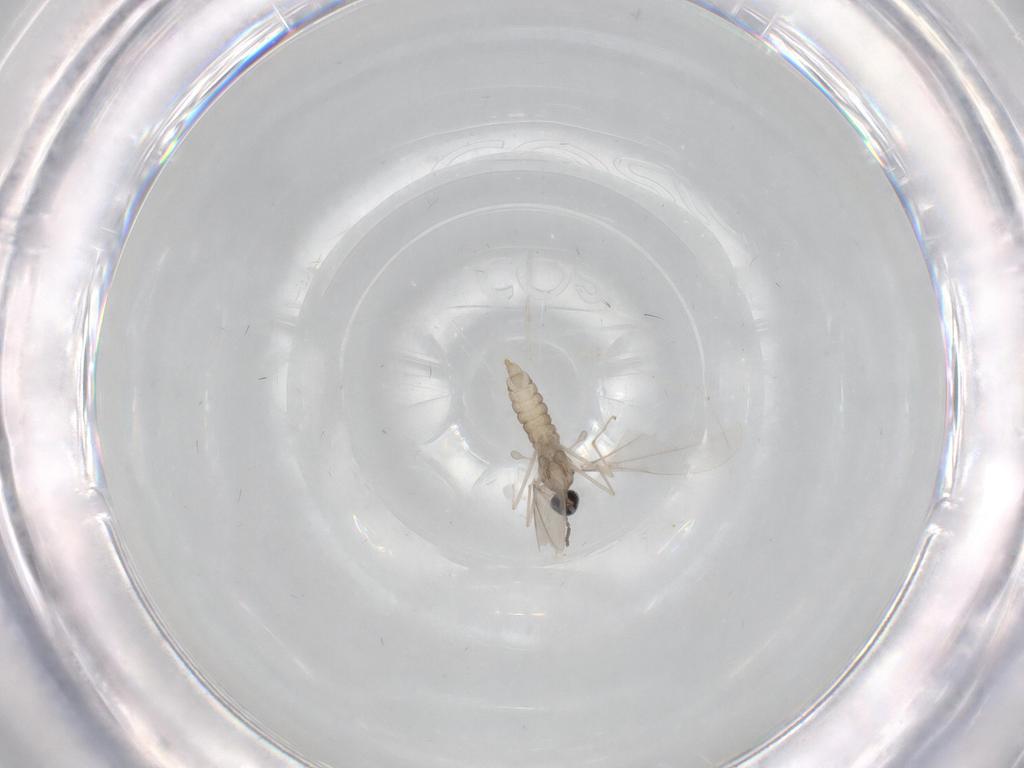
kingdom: Animalia
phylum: Arthropoda
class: Insecta
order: Diptera
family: Cecidomyiidae
